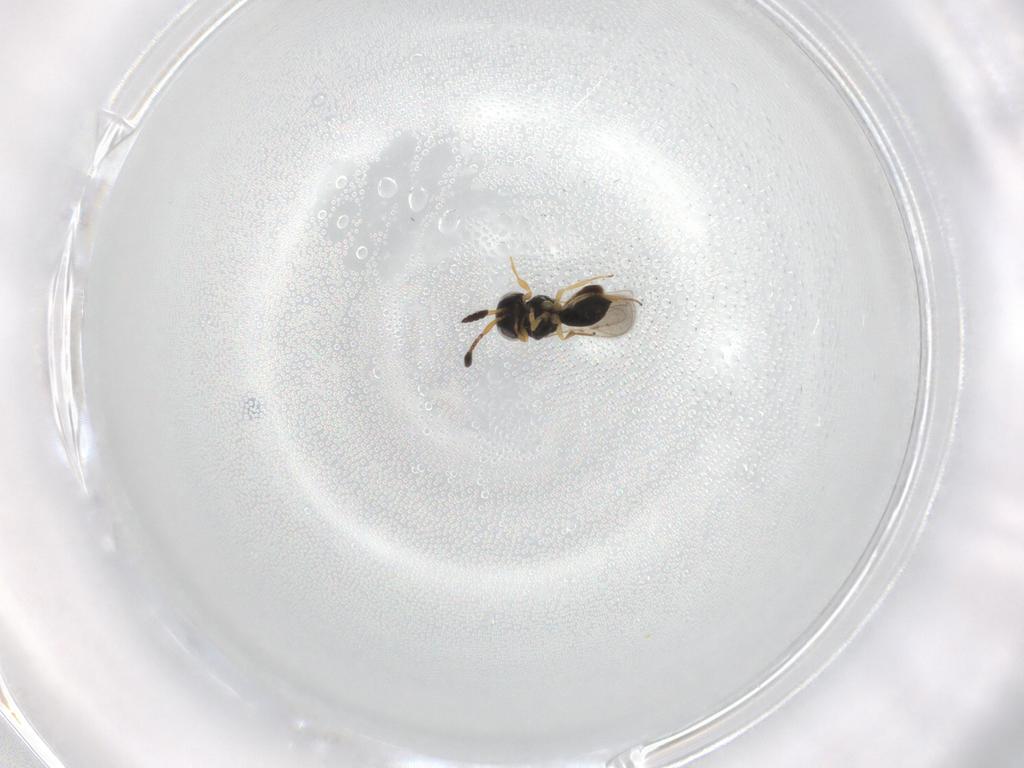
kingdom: Animalia
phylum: Arthropoda
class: Insecta
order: Hymenoptera
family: Scelionidae
